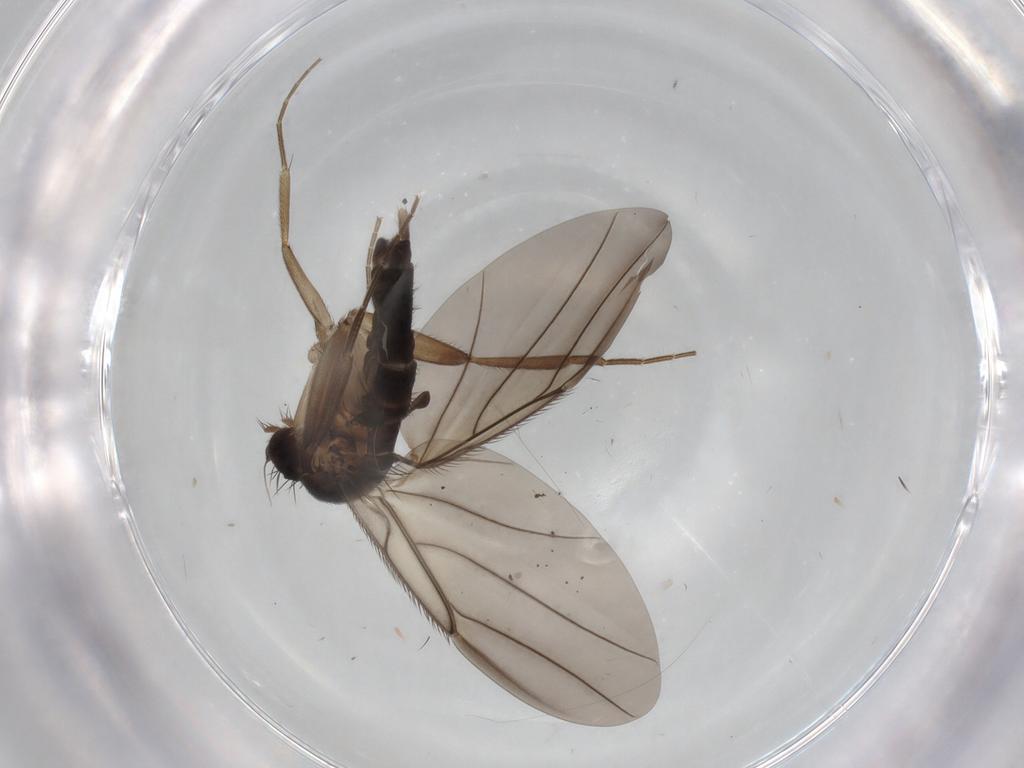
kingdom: Animalia
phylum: Arthropoda
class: Insecta
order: Diptera
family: Phoridae
